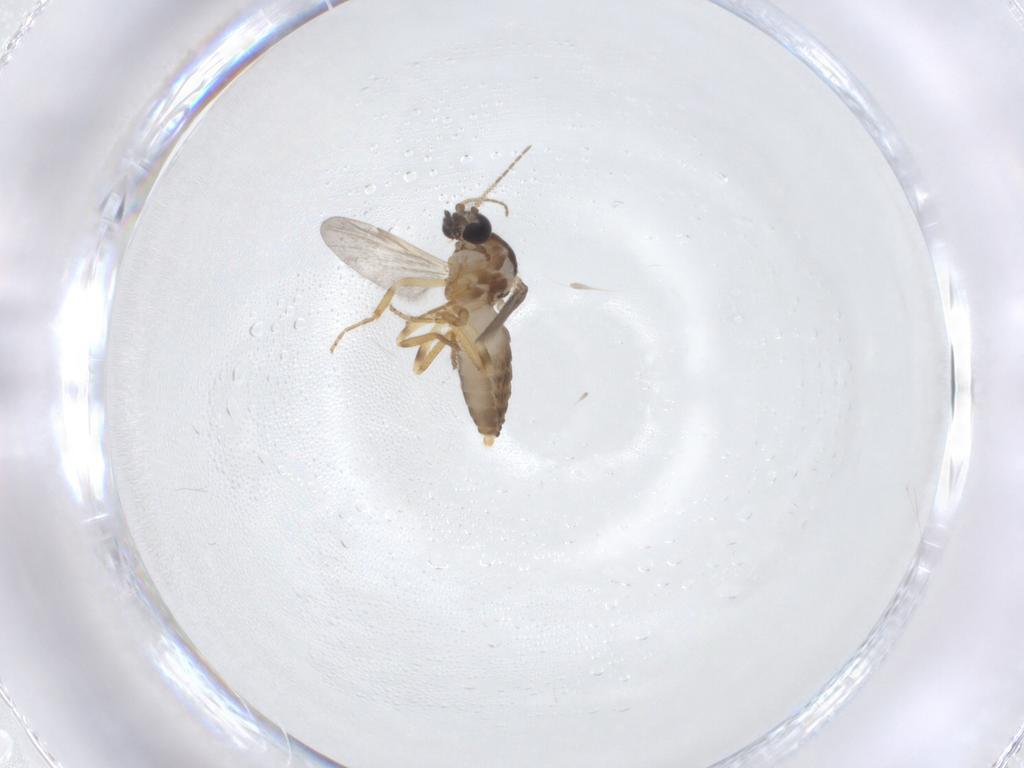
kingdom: Animalia
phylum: Arthropoda
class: Insecta
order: Diptera
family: Ceratopogonidae
